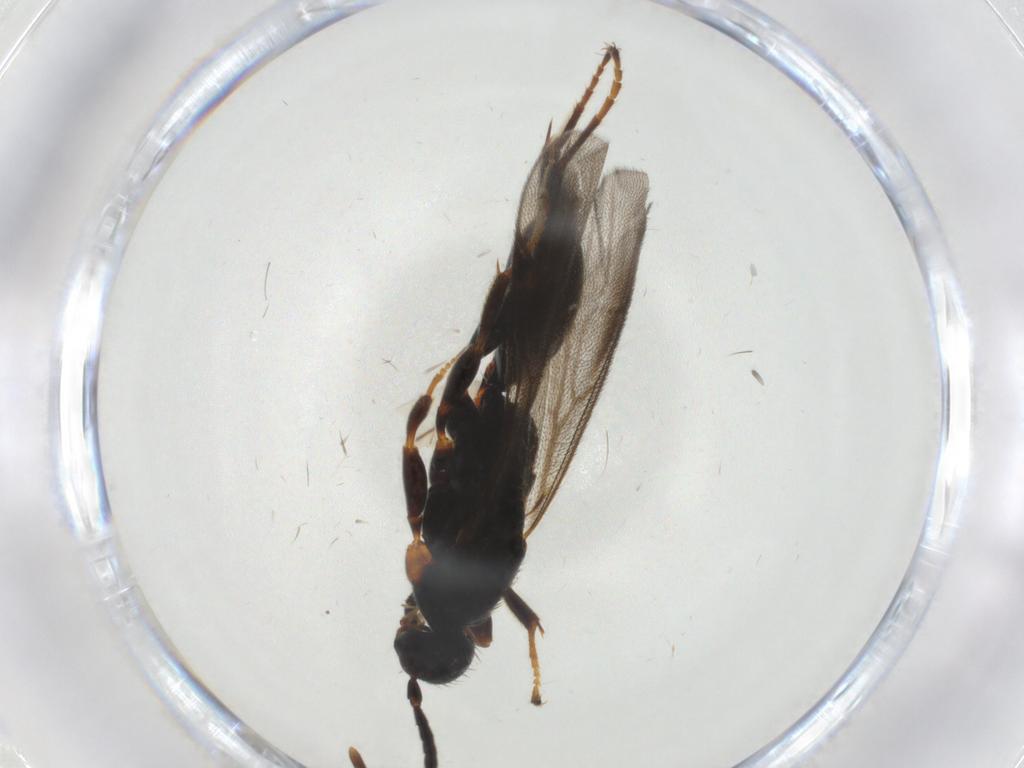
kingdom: Animalia
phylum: Arthropoda
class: Insecta
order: Hymenoptera
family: Proctotrupidae
